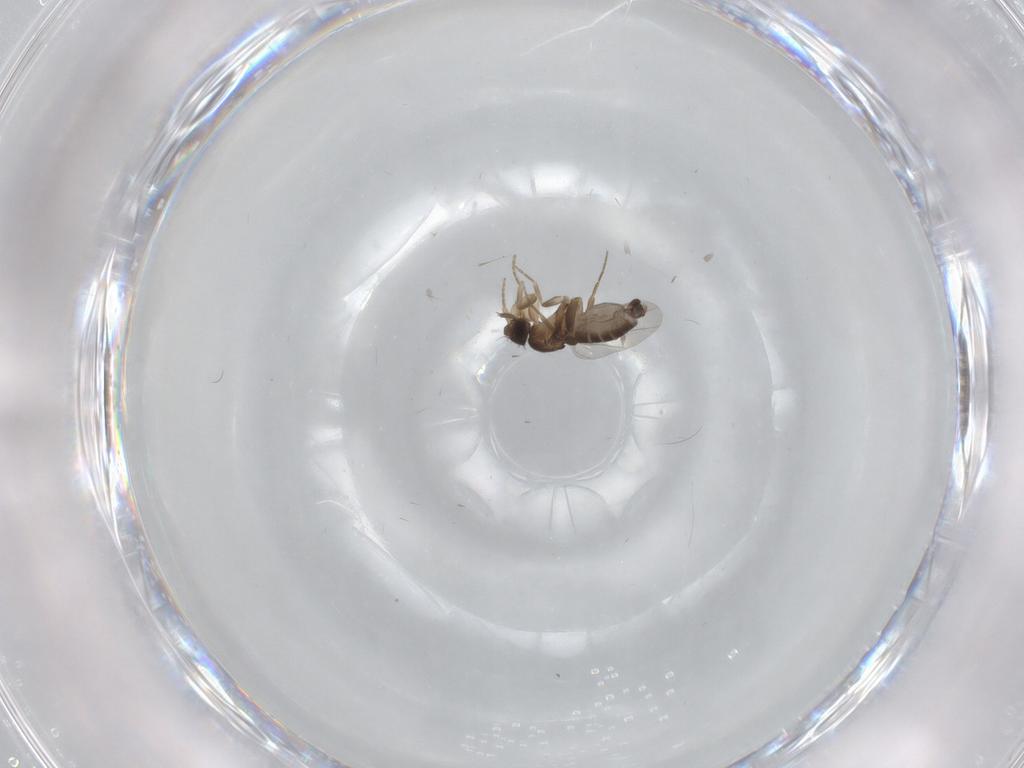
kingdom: Animalia
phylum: Arthropoda
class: Insecta
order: Diptera
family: Phoridae
